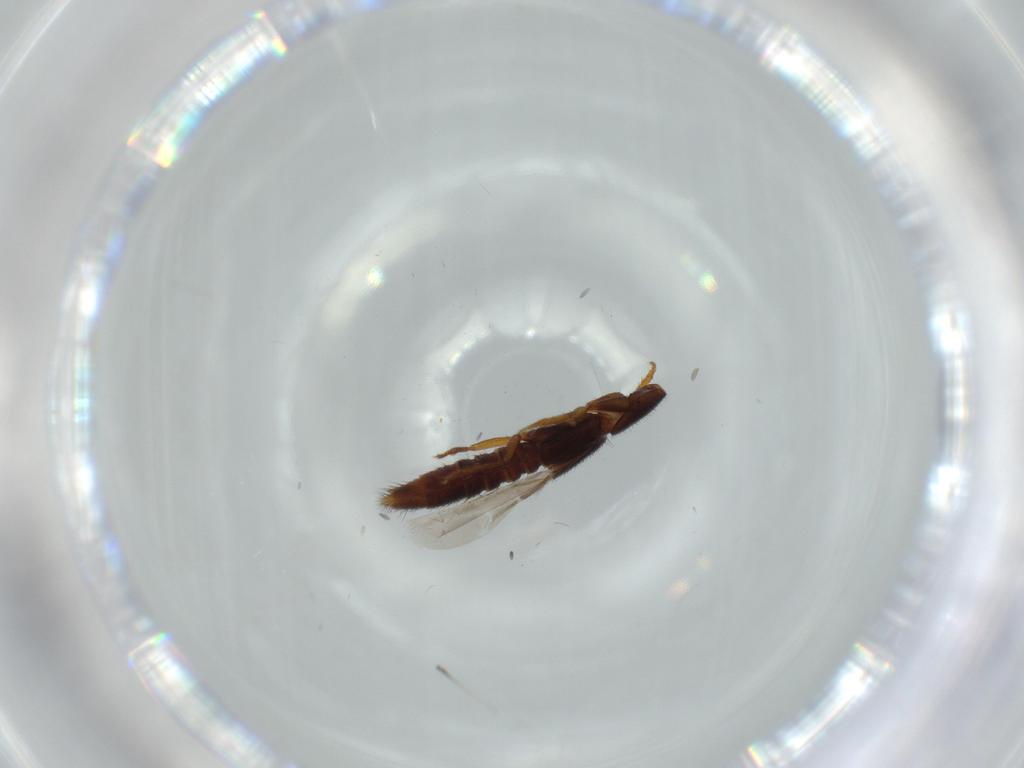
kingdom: Animalia
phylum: Arthropoda
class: Insecta
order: Coleoptera
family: Staphylinidae
